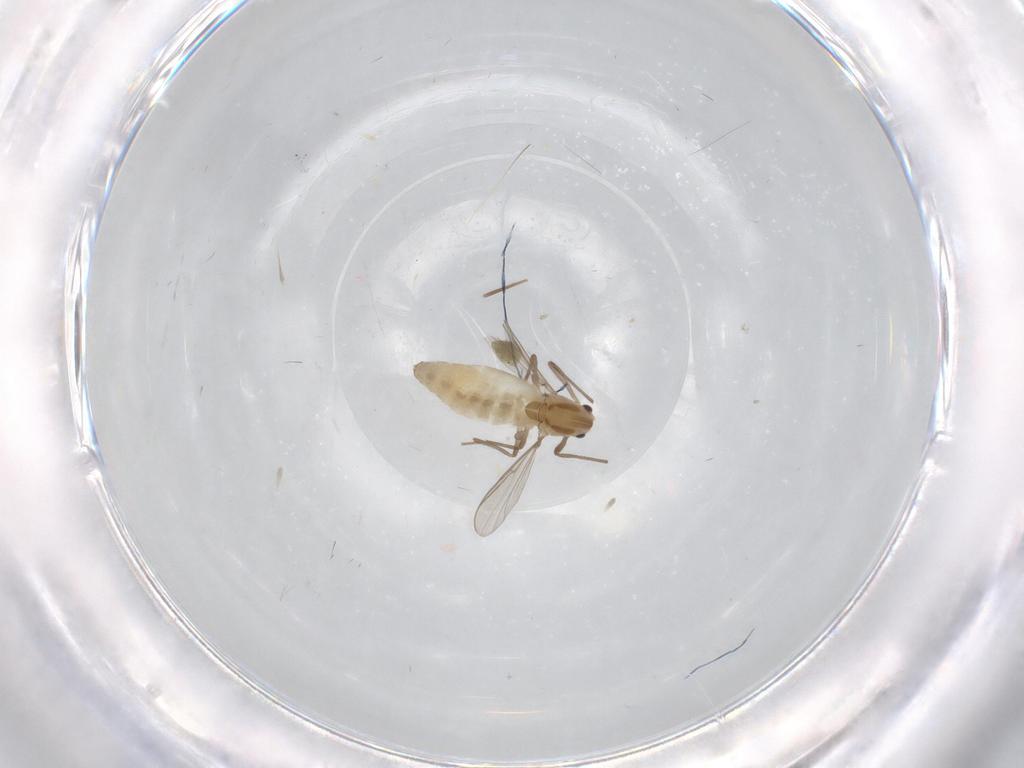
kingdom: Animalia
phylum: Arthropoda
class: Insecta
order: Diptera
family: Chironomidae
